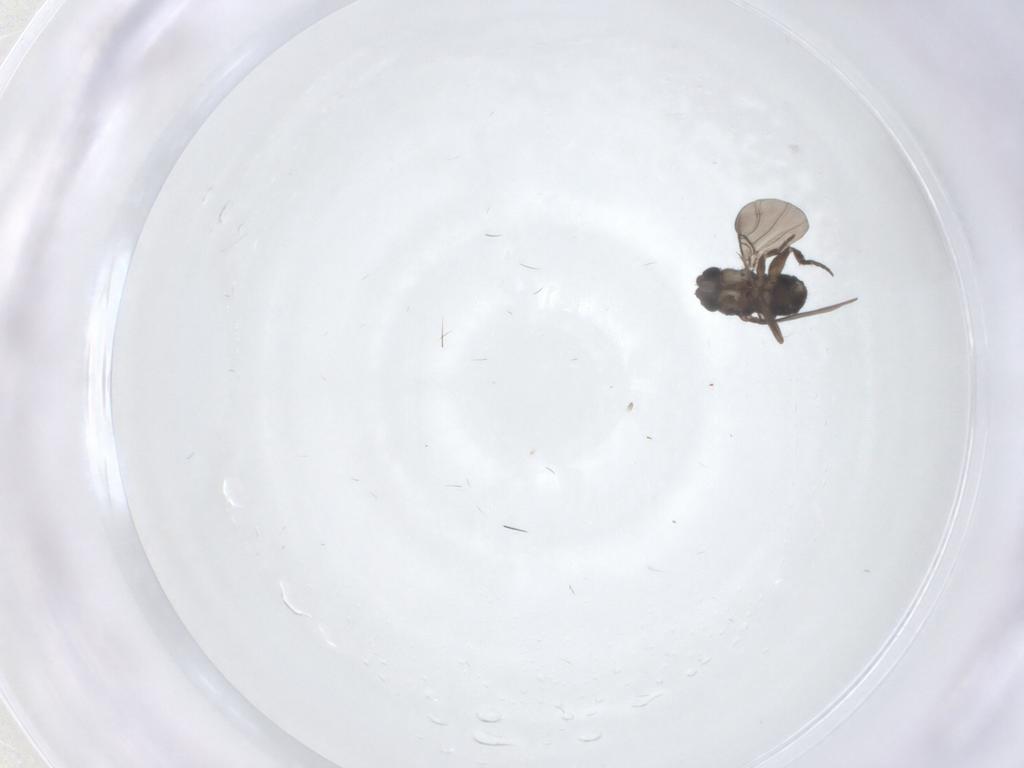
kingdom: Animalia
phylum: Arthropoda
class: Insecta
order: Diptera
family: Phoridae
